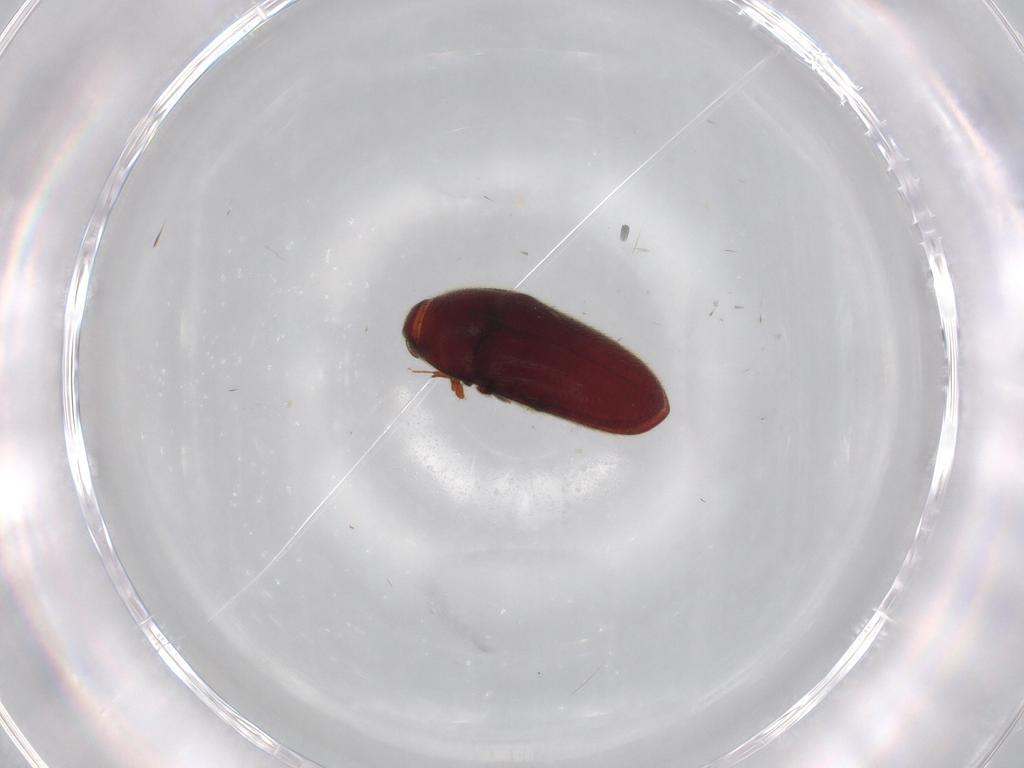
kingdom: Animalia
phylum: Arthropoda
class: Insecta
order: Coleoptera
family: Throscidae
